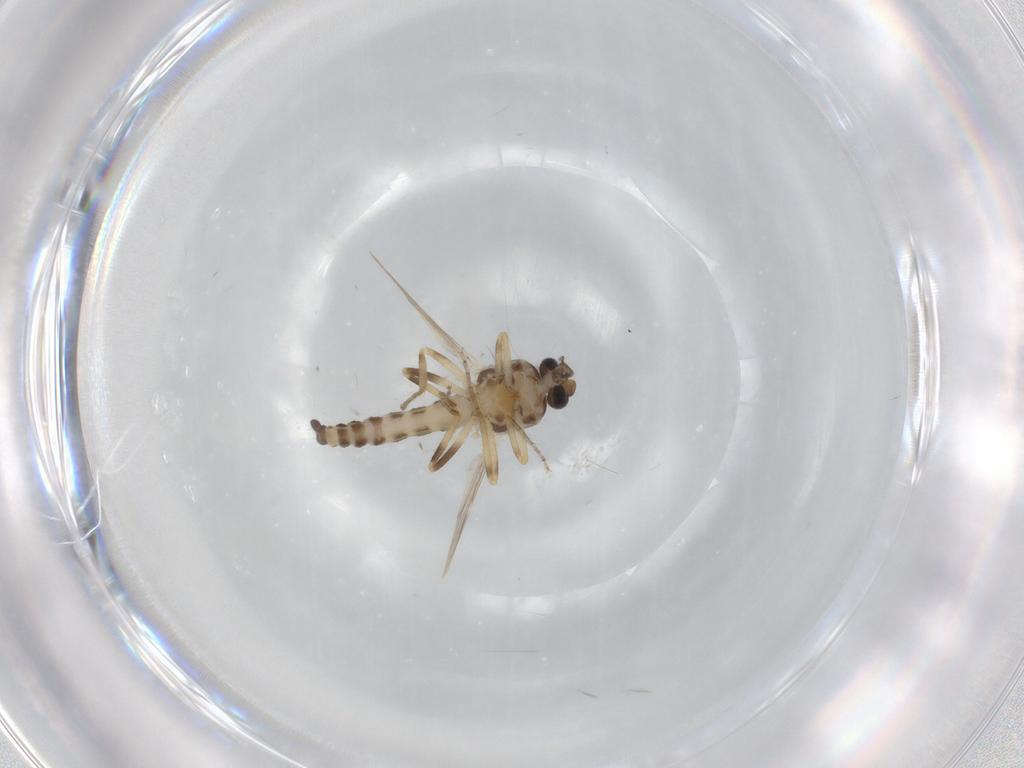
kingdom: Animalia
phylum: Arthropoda
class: Insecta
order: Diptera
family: Ceratopogonidae
